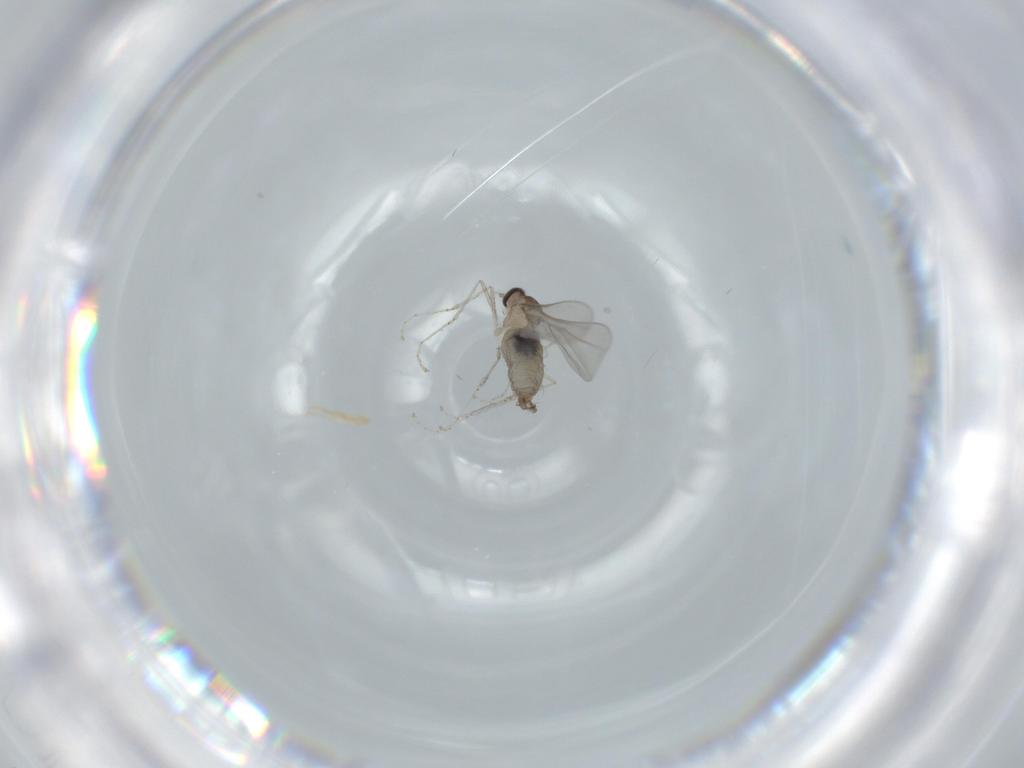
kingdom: Animalia
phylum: Arthropoda
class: Insecta
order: Diptera
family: Cecidomyiidae
